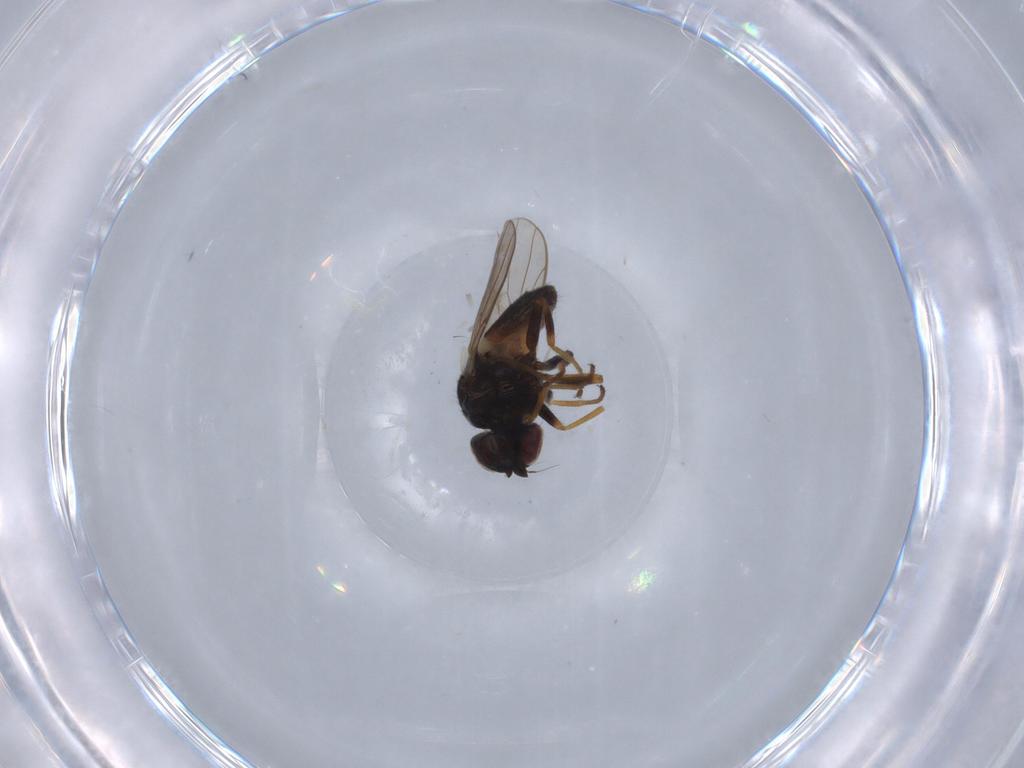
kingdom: Animalia
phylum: Arthropoda
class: Insecta
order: Diptera
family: Chloropidae
